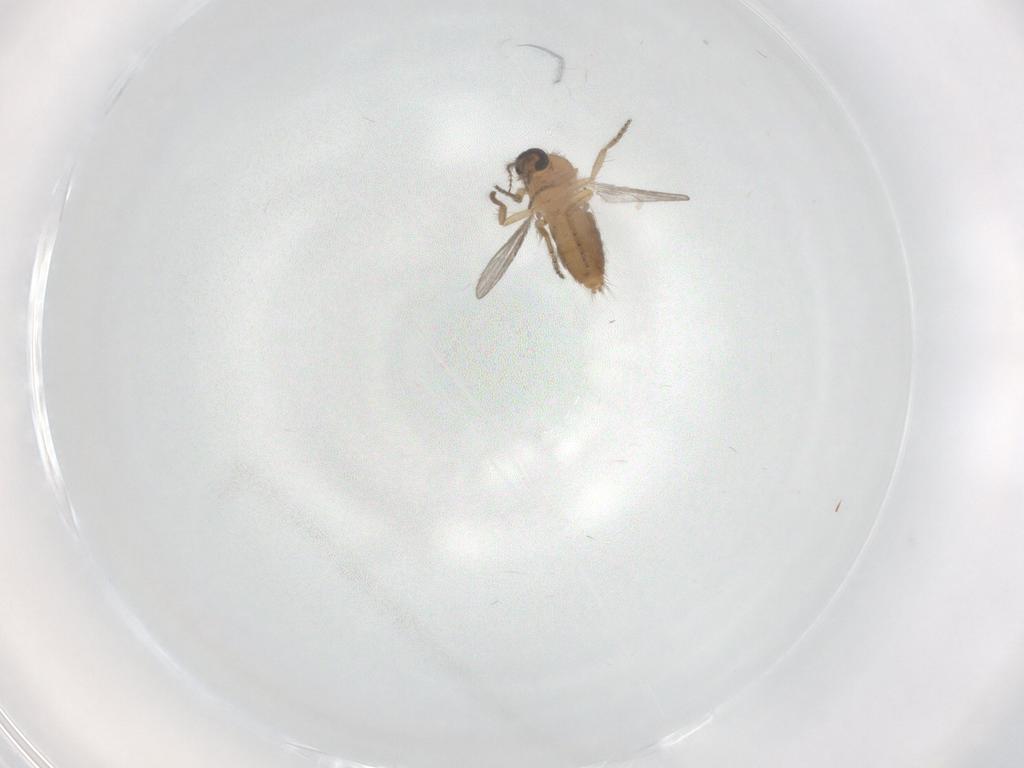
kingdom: Animalia
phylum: Arthropoda
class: Insecta
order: Diptera
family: Ceratopogonidae
